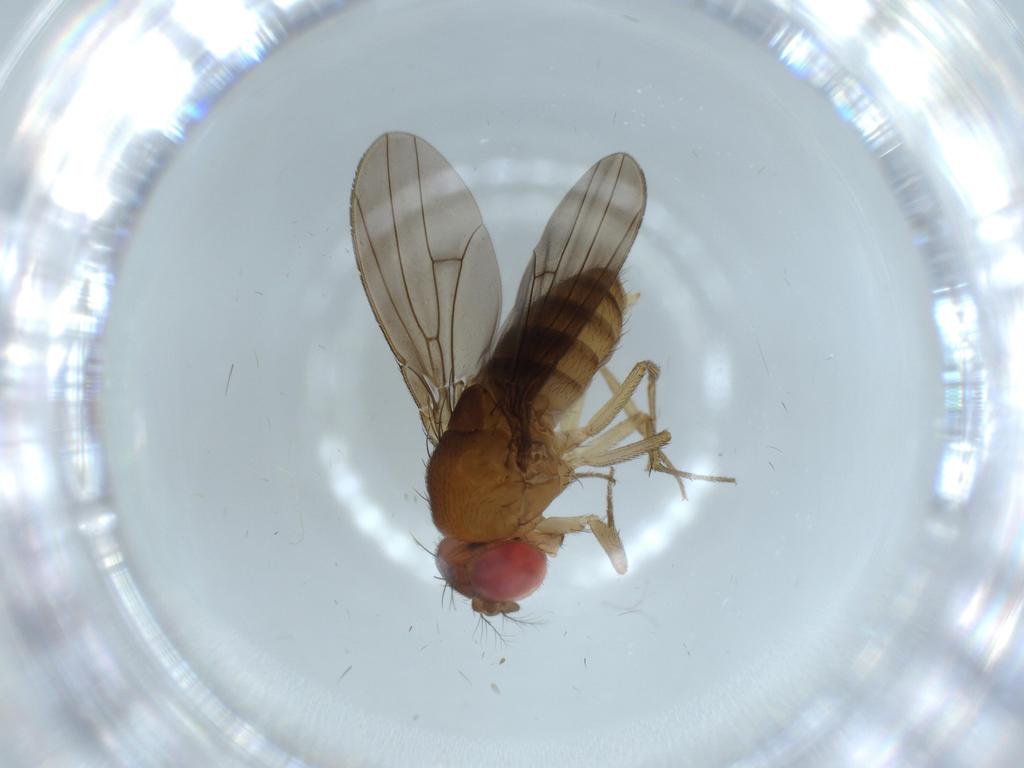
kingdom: Animalia
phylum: Arthropoda
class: Insecta
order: Diptera
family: Drosophilidae
